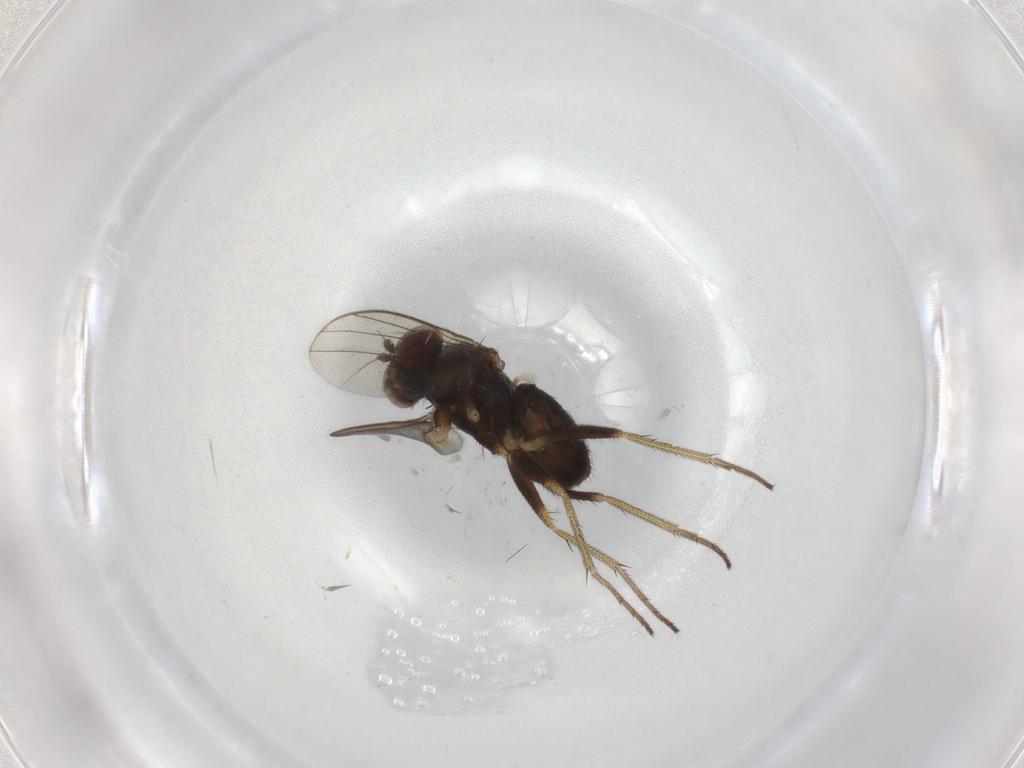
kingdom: Animalia
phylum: Arthropoda
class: Insecta
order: Diptera
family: Dolichopodidae
